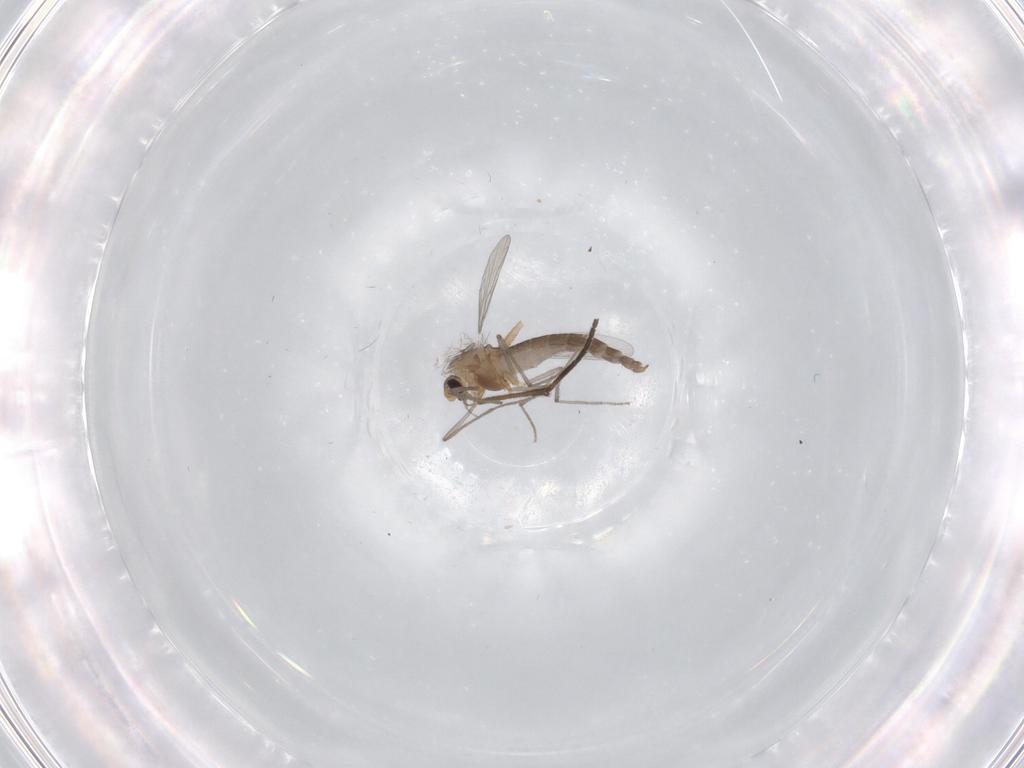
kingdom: Animalia
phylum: Arthropoda
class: Insecta
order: Diptera
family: Chironomidae
